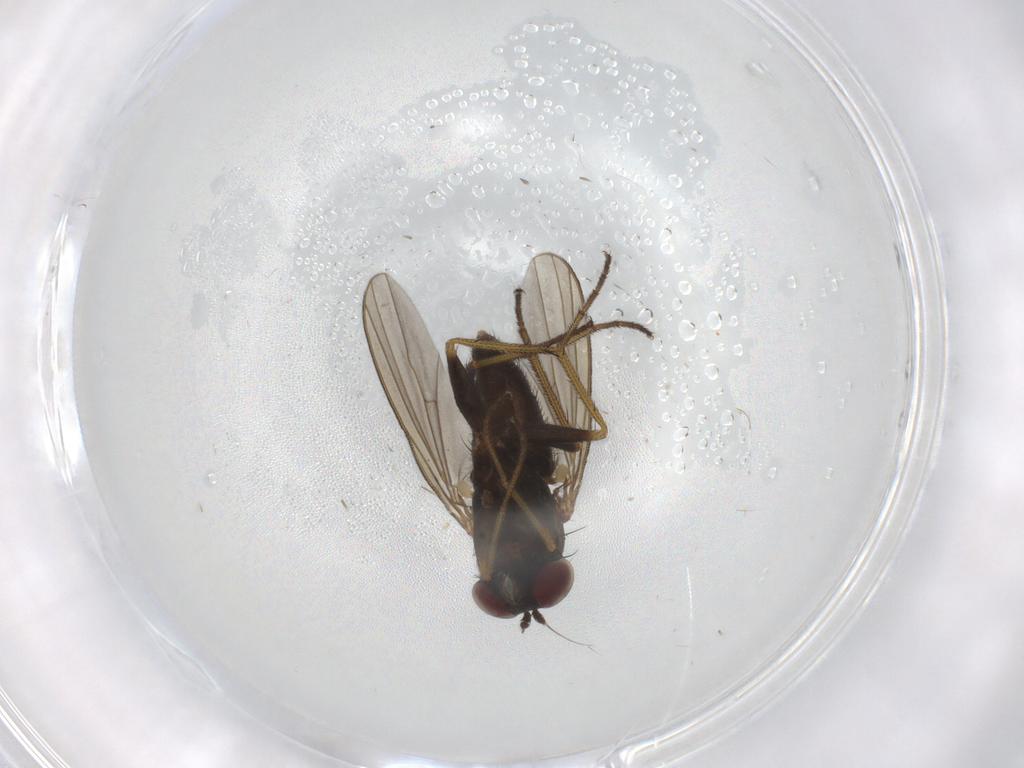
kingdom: Animalia
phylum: Arthropoda
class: Insecta
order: Diptera
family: Dolichopodidae
